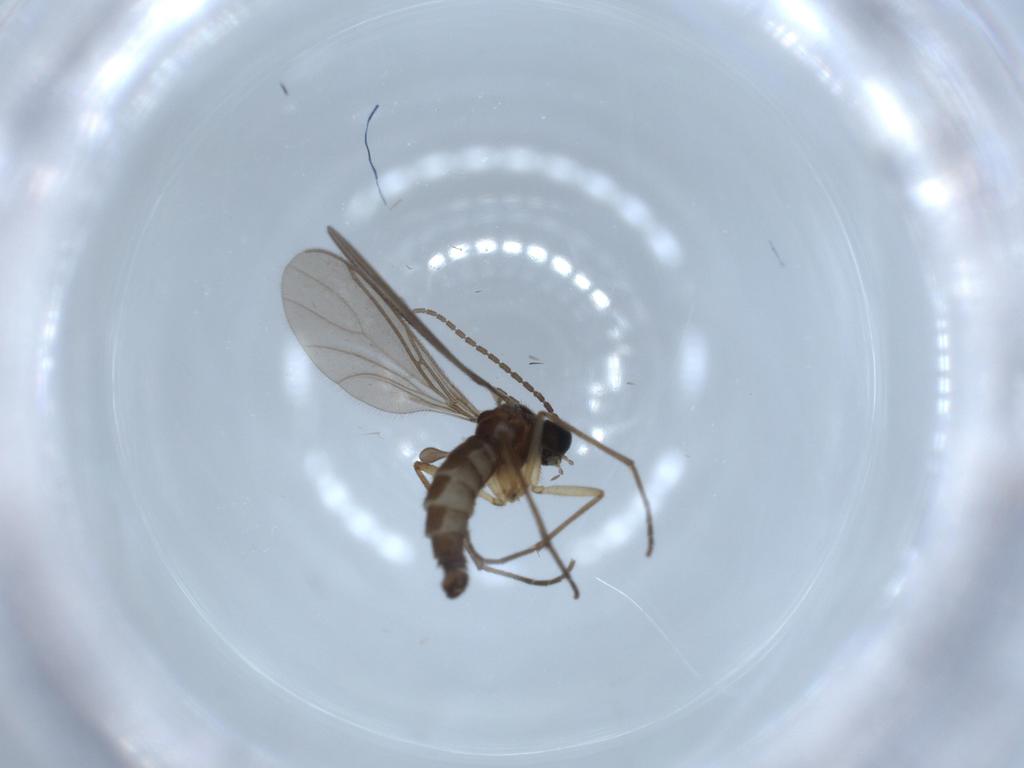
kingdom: Animalia
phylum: Arthropoda
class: Insecta
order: Diptera
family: Sciaridae
